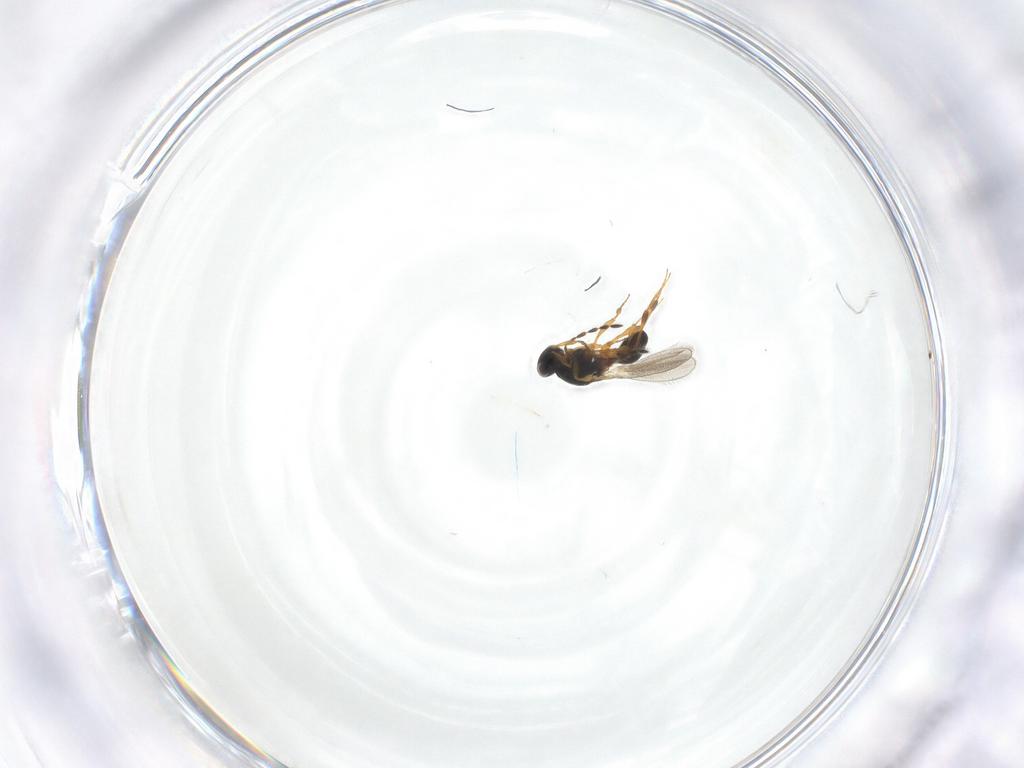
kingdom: Animalia
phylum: Arthropoda
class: Insecta
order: Hymenoptera
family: Platygastridae
